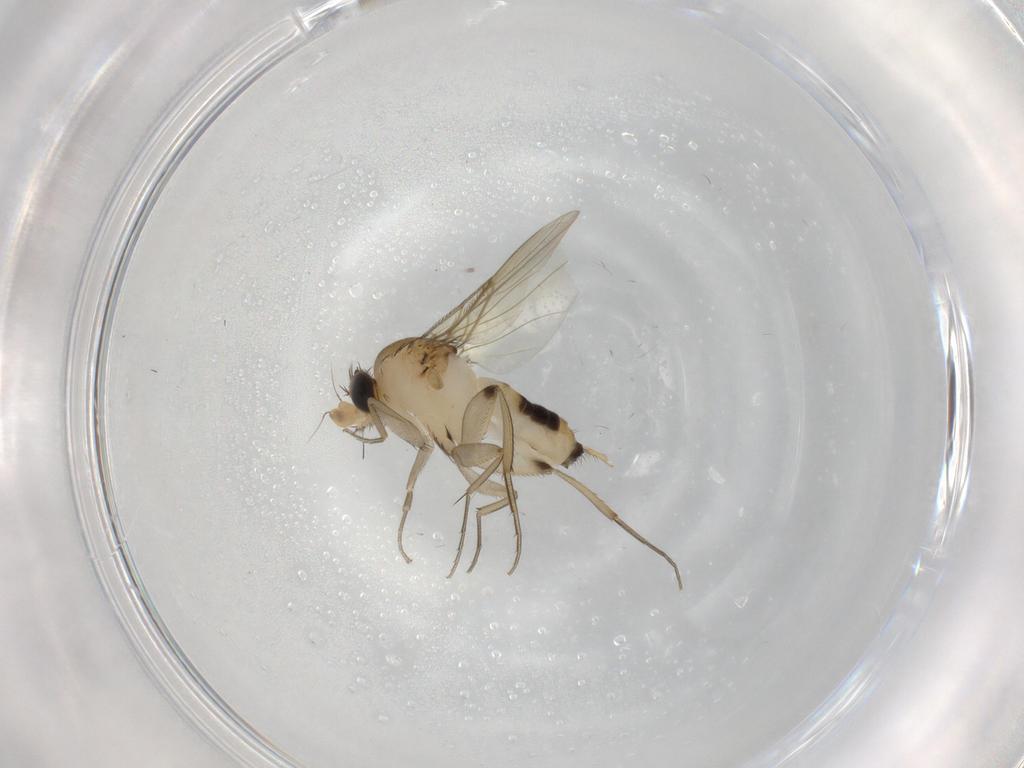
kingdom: Animalia
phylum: Arthropoda
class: Insecta
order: Diptera
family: Phoridae
